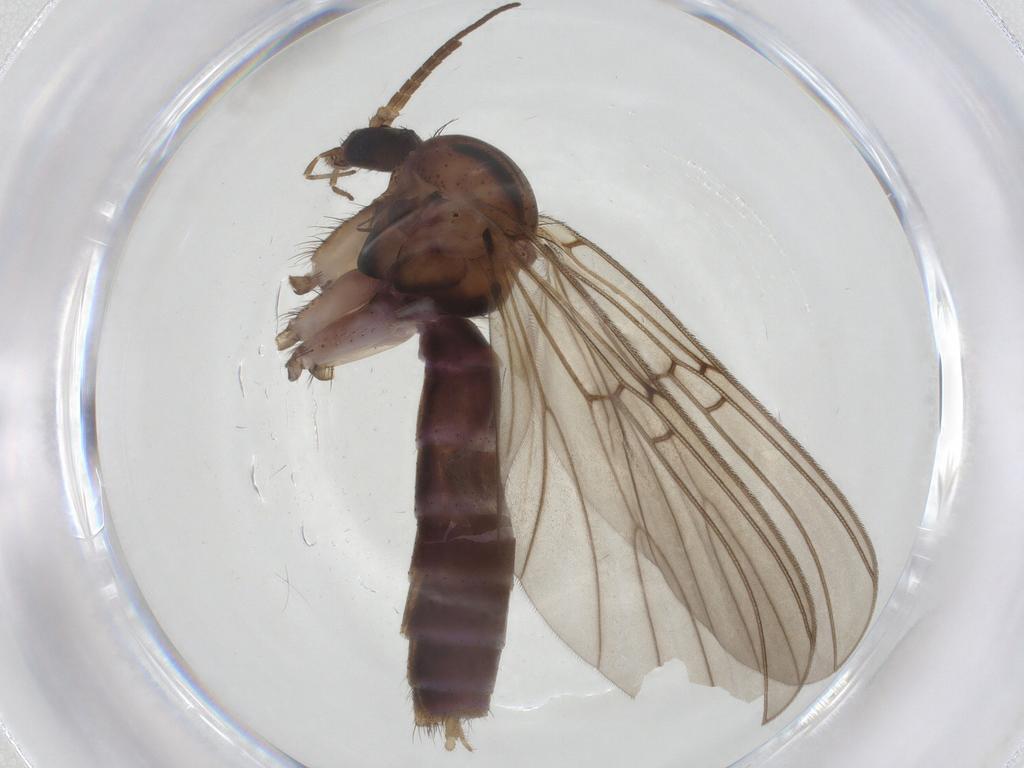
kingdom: Animalia
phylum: Arthropoda
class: Insecta
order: Diptera
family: Mycetophilidae
